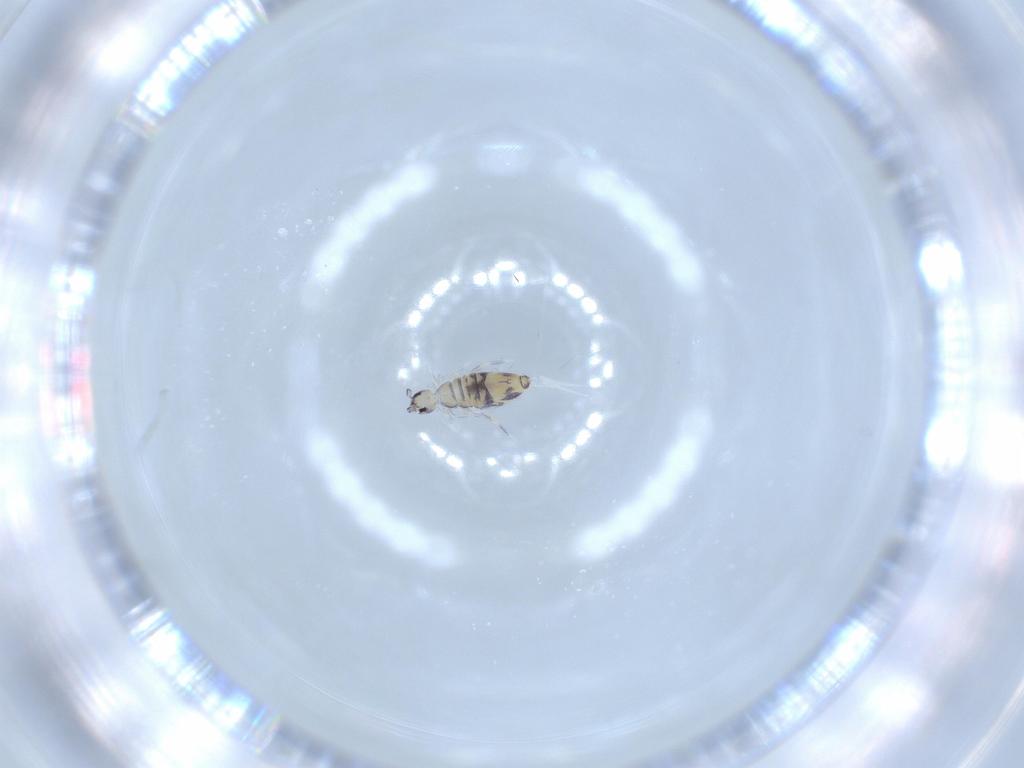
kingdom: Animalia
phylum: Arthropoda
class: Collembola
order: Entomobryomorpha
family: Entomobryidae
